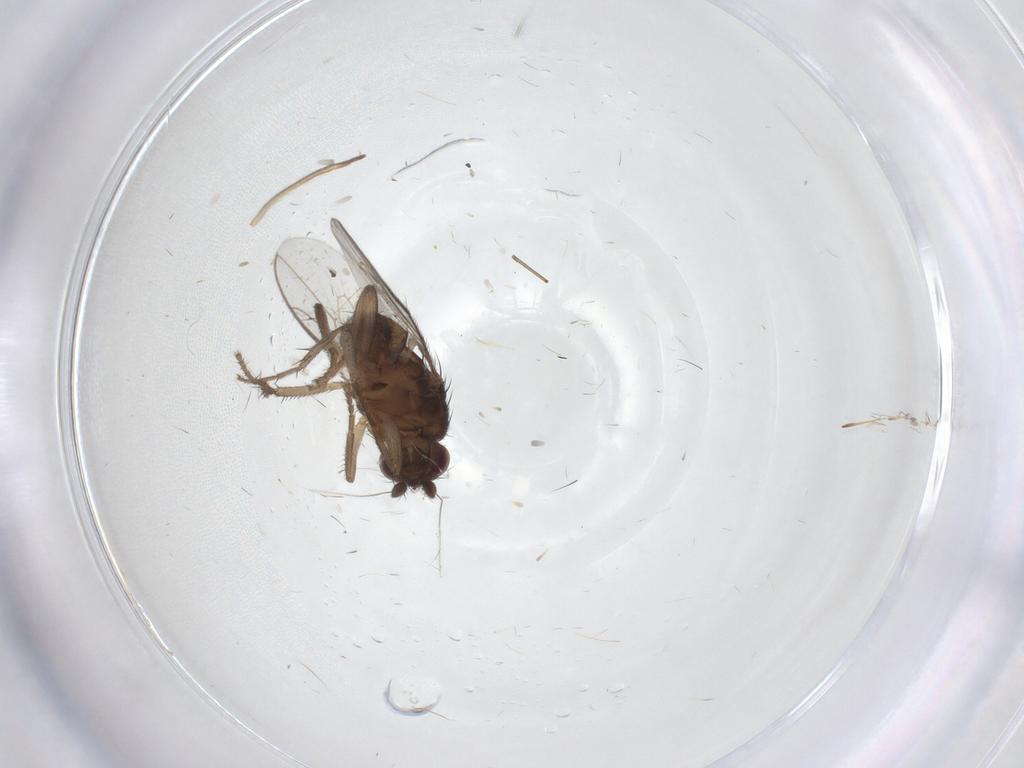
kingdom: Animalia
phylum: Arthropoda
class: Insecta
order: Diptera
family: Sphaeroceridae
